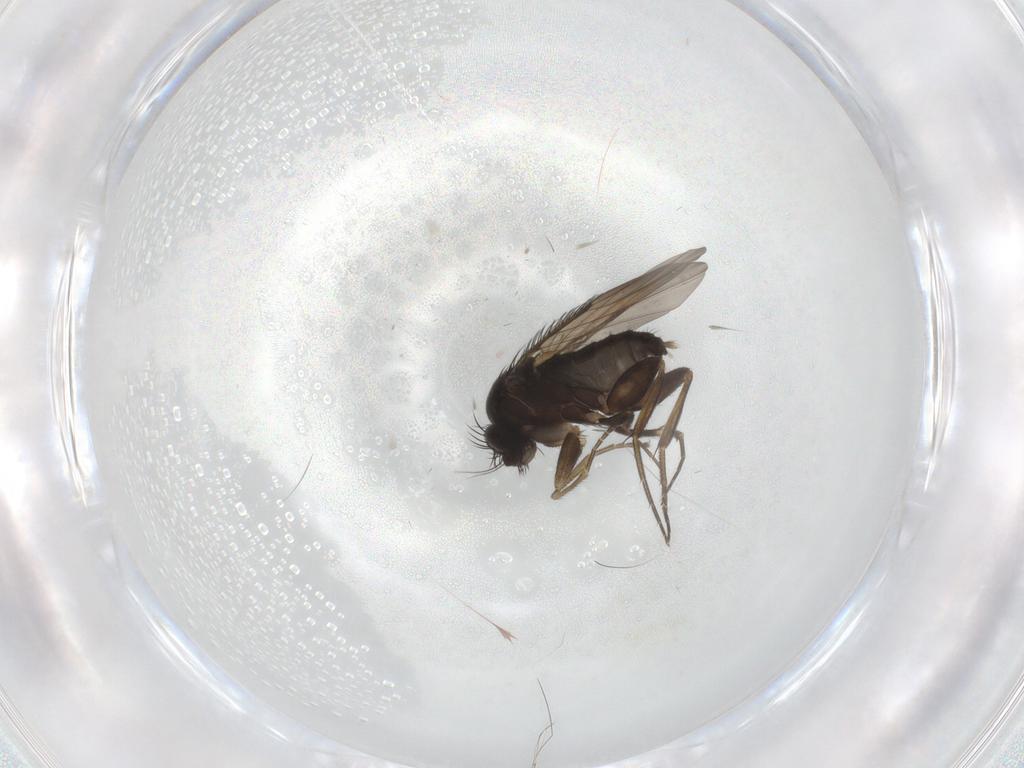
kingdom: Animalia
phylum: Arthropoda
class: Insecta
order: Diptera
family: Phoridae
